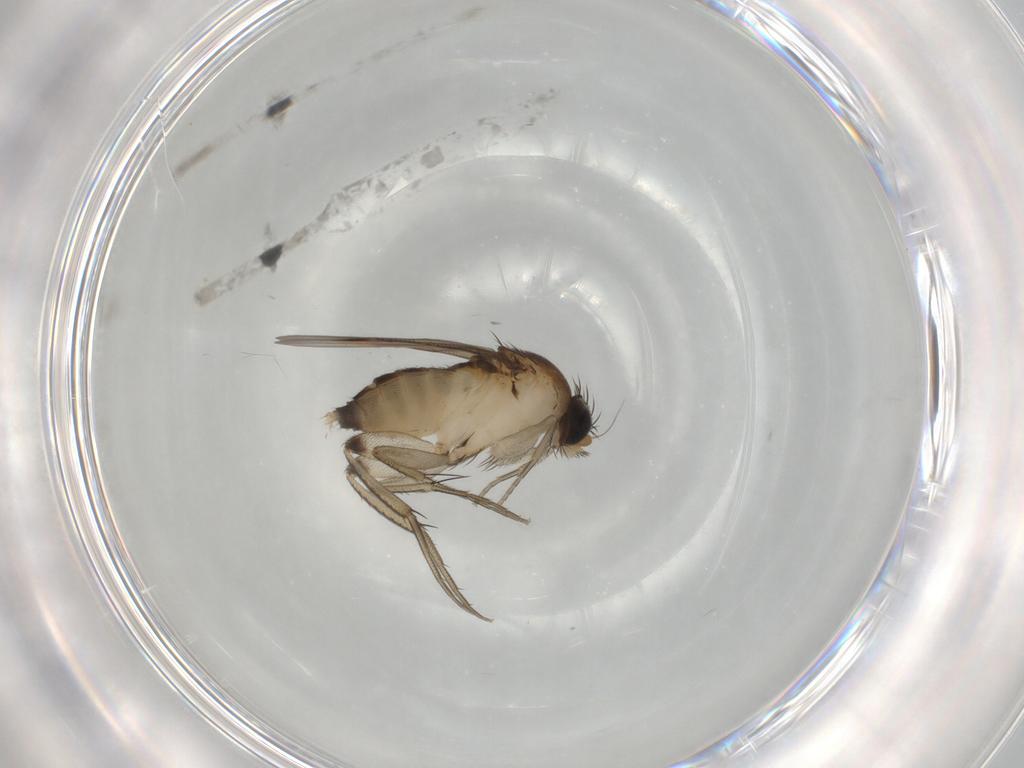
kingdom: Animalia
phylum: Arthropoda
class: Insecta
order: Diptera
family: Phoridae
